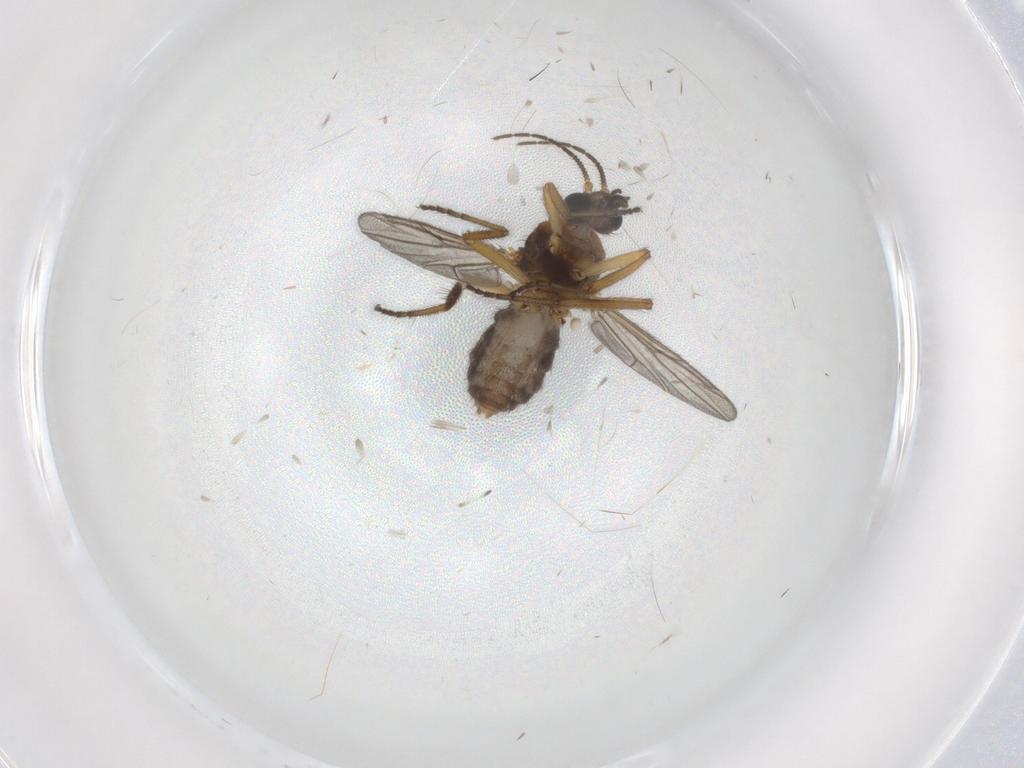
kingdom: Animalia
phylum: Arthropoda
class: Insecta
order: Diptera
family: Ceratopogonidae
